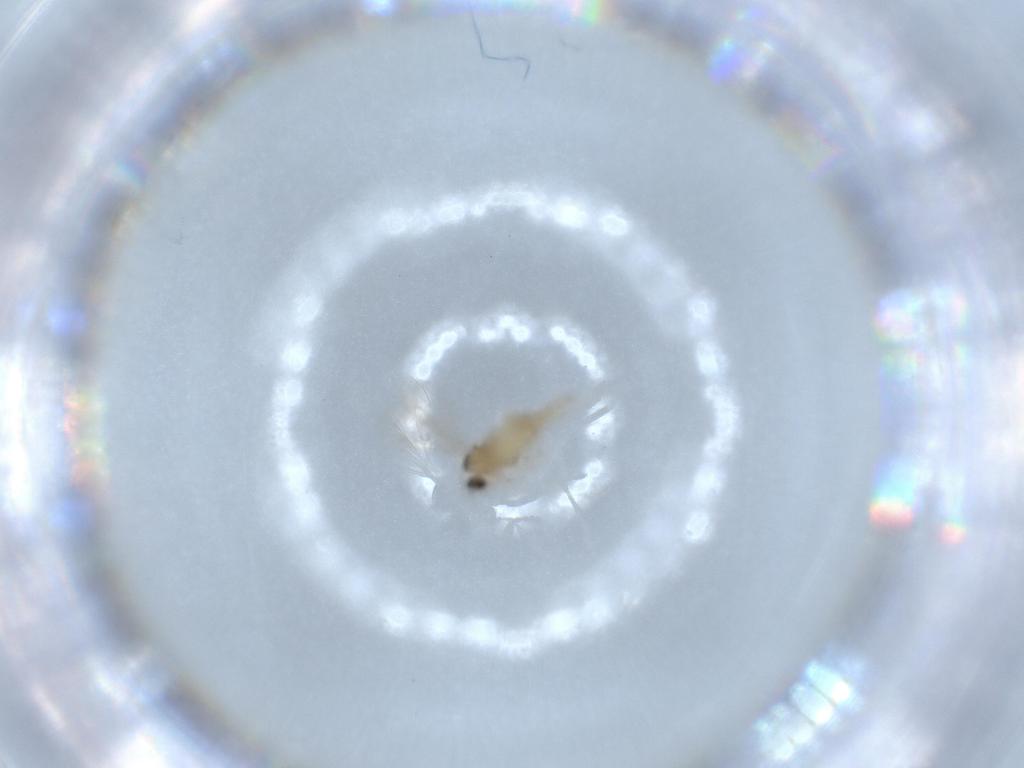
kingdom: Animalia
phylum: Arthropoda
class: Insecta
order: Diptera
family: Cecidomyiidae
